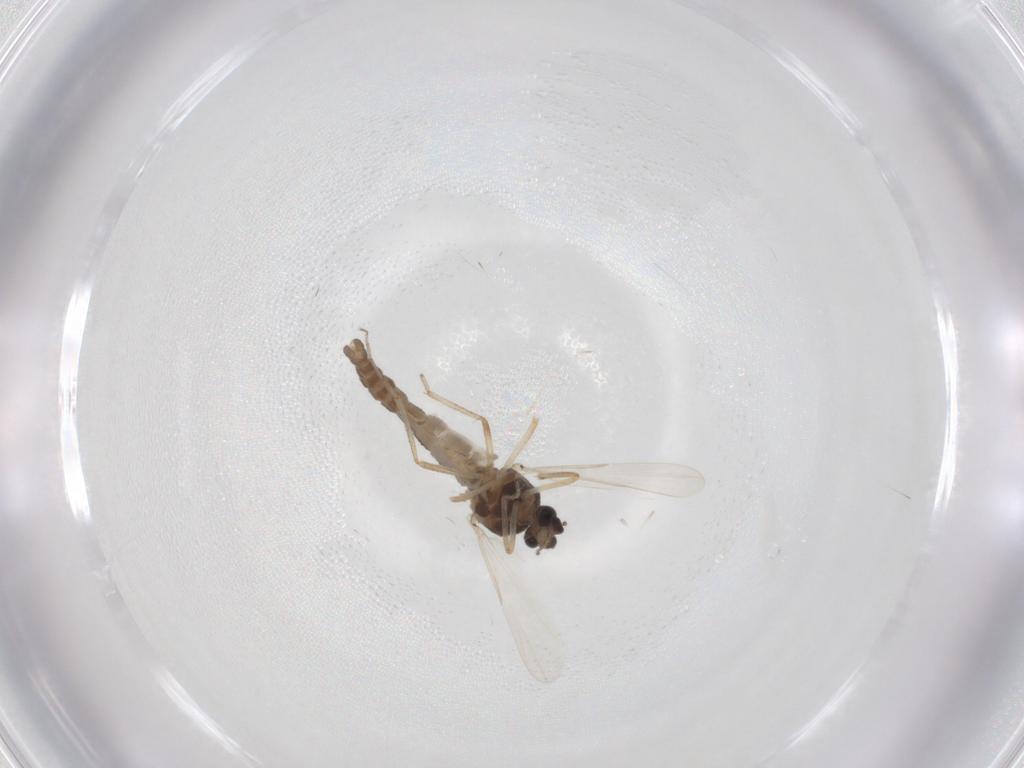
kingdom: Animalia
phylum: Arthropoda
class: Insecta
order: Diptera
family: Ceratopogonidae
